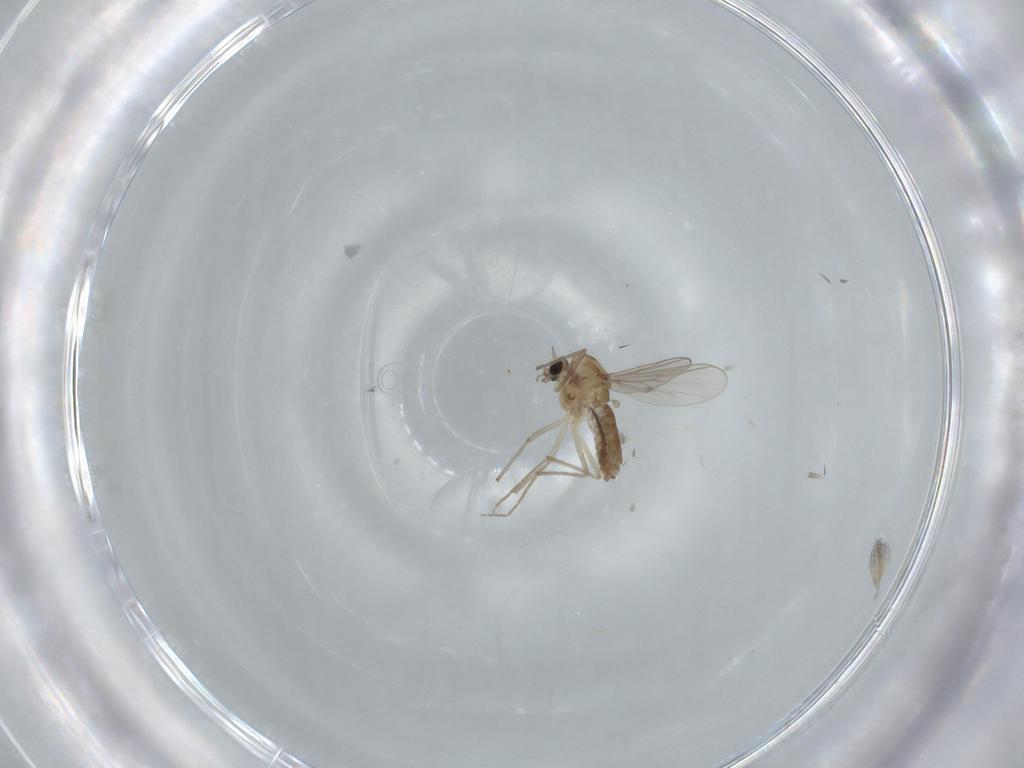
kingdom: Animalia
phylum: Arthropoda
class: Insecta
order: Diptera
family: Chironomidae
